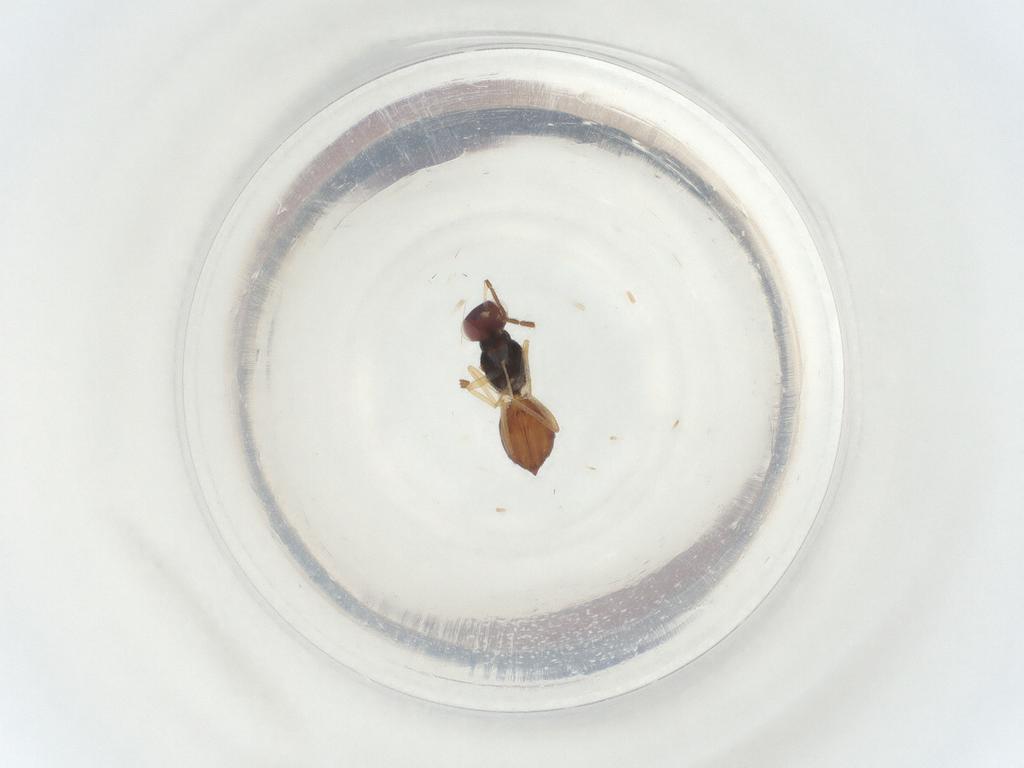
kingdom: Animalia
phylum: Arthropoda
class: Insecta
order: Hymenoptera
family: Eulophidae
